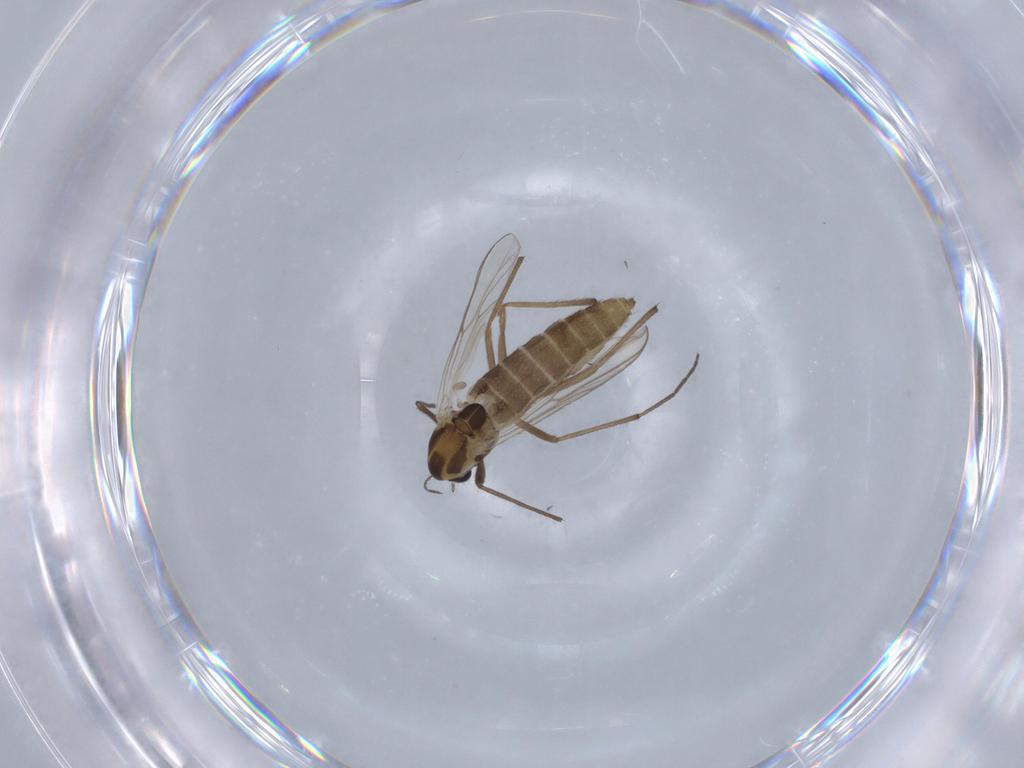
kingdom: Animalia
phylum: Arthropoda
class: Insecta
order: Diptera
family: Chironomidae
